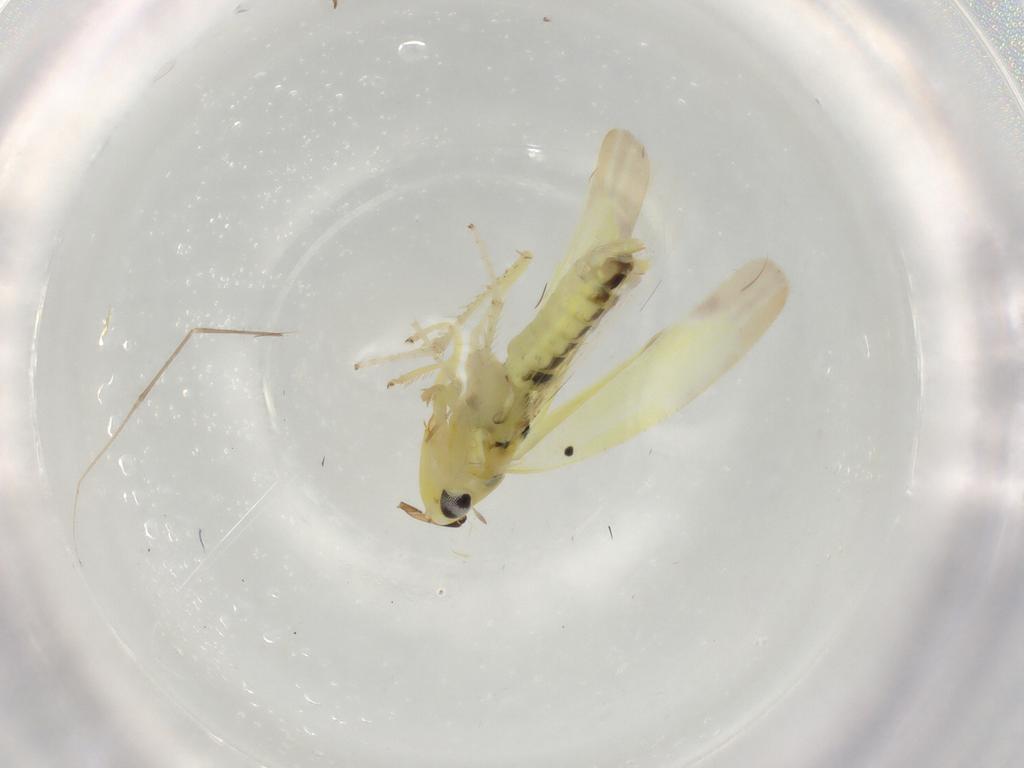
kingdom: Animalia
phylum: Arthropoda
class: Insecta
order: Hemiptera
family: Cicadellidae
